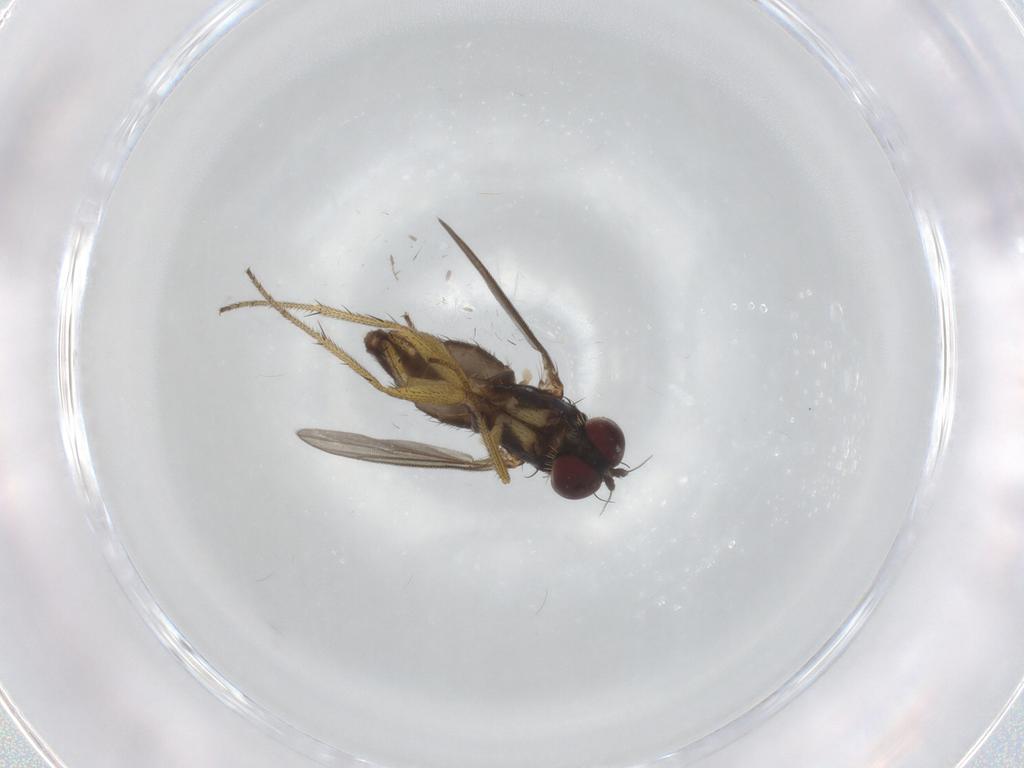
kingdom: Animalia
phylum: Arthropoda
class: Insecta
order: Diptera
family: Dolichopodidae
